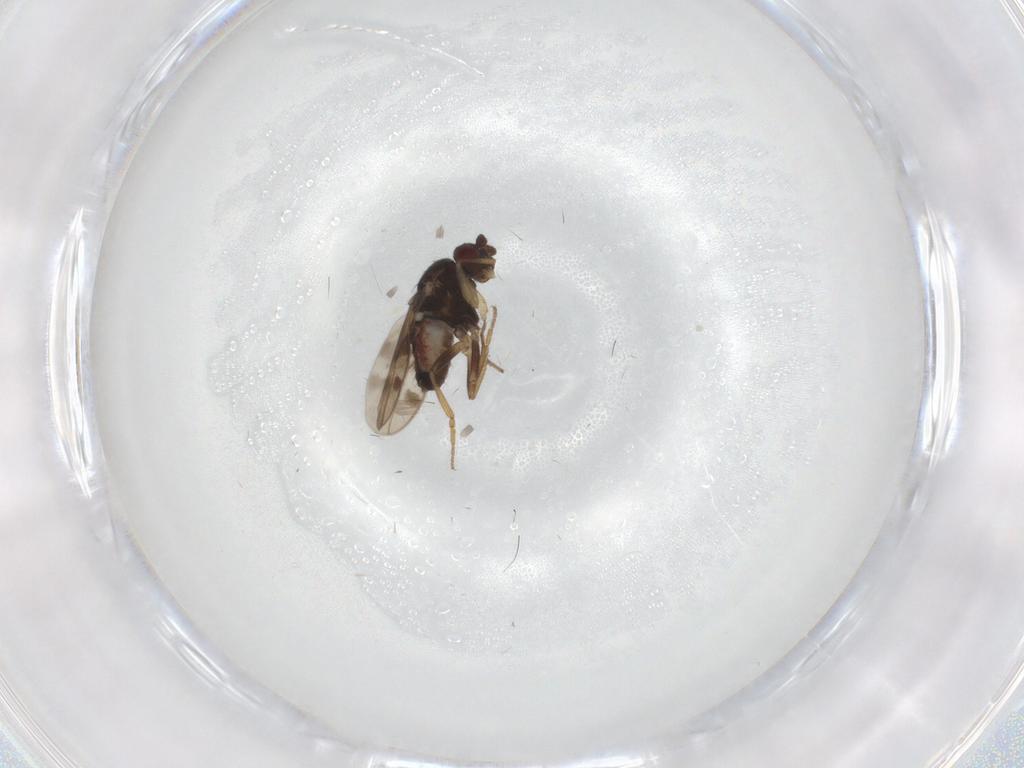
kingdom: Animalia
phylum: Arthropoda
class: Insecta
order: Diptera
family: Sphaeroceridae
